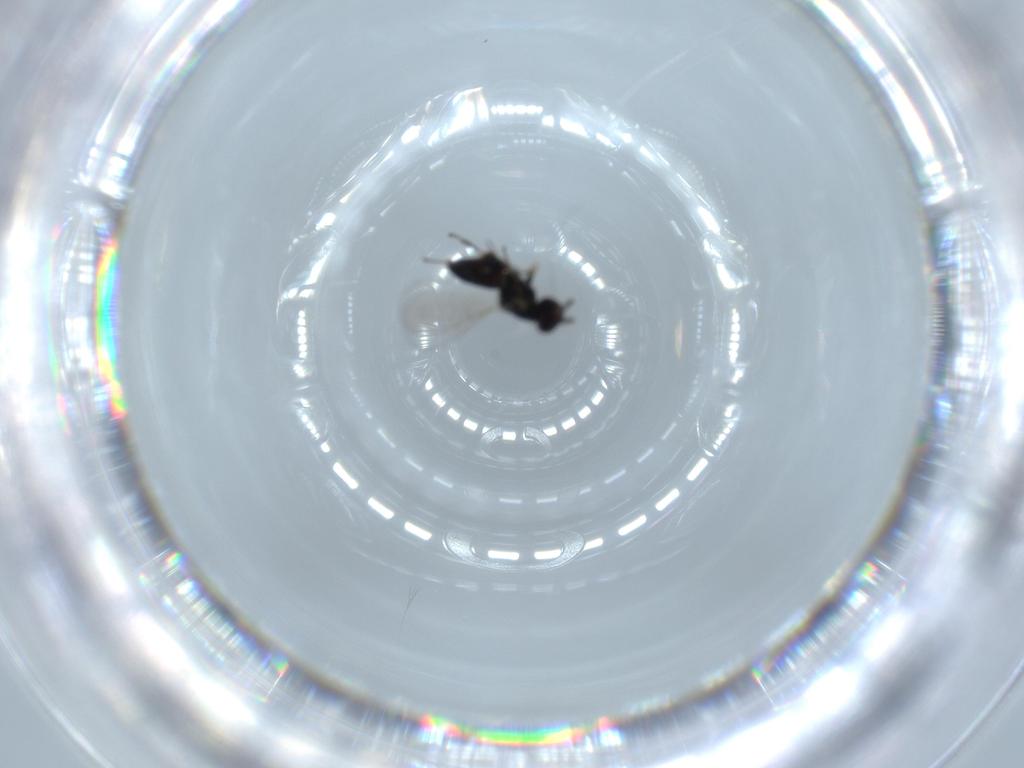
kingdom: Animalia
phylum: Arthropoda
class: Insecta
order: Hymenoptera
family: Eulophidae
